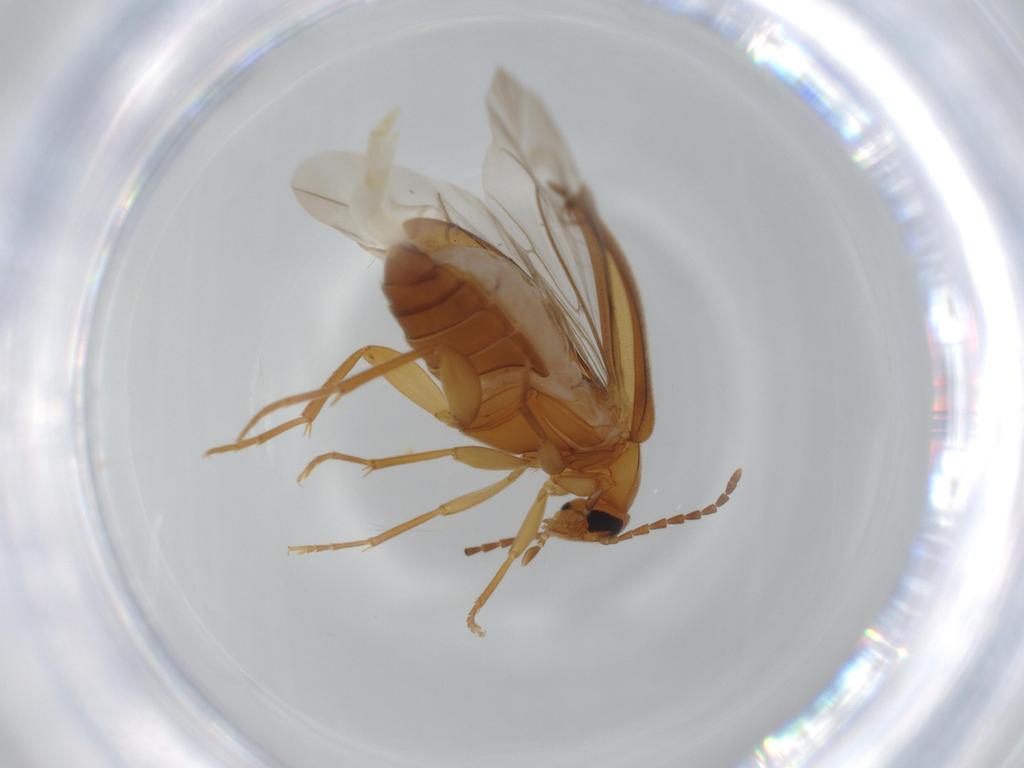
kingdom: Animalia
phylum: Arthropoda
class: Insecta
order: Coleoptera
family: Scraptiidae
